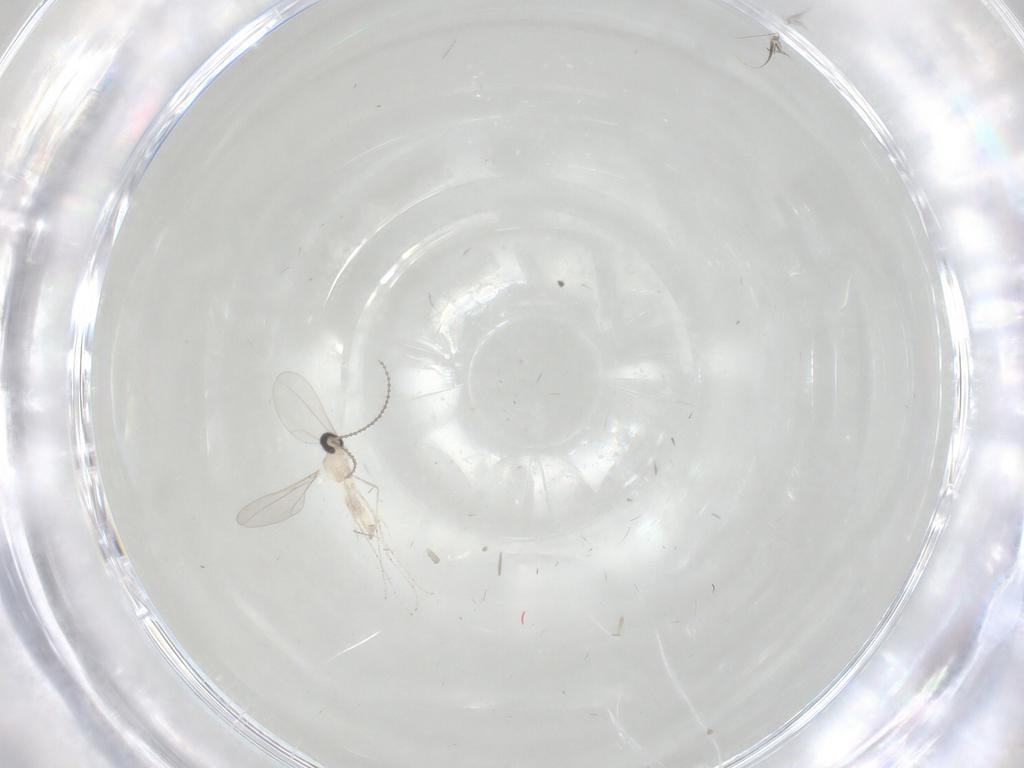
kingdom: Animalia
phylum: Arthropoda
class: Insecta
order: Diptera
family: Cecidomyiidae
